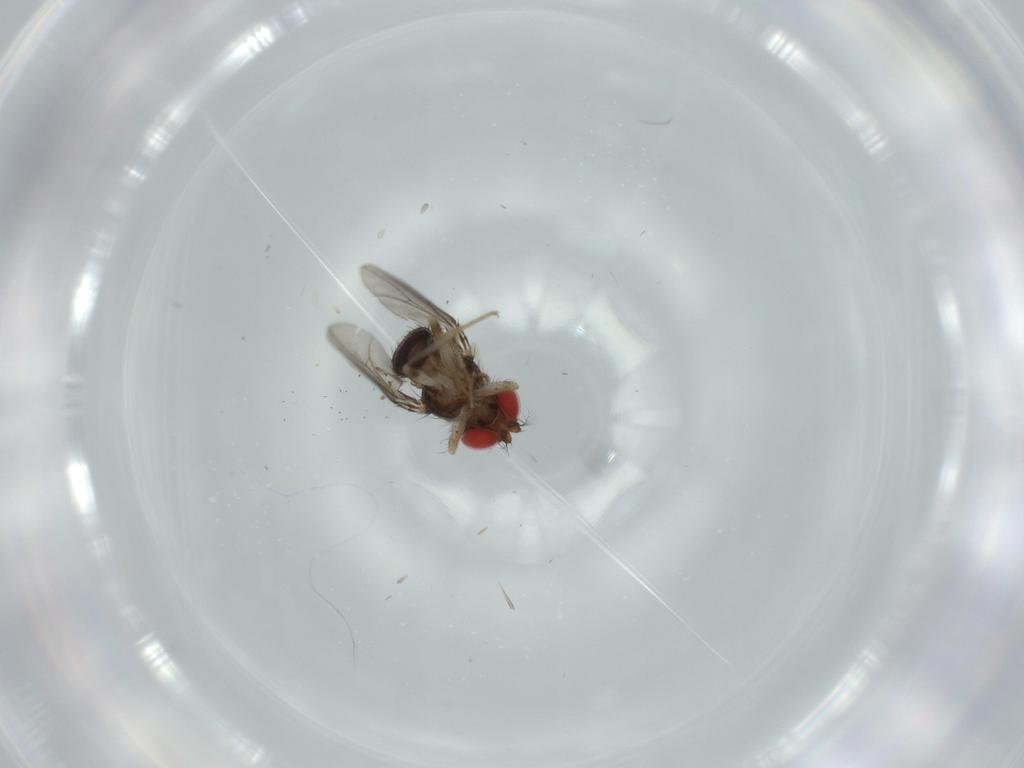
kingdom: Animalia
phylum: Arthropoda
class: Insecta
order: Diptera
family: Drosophilidae
